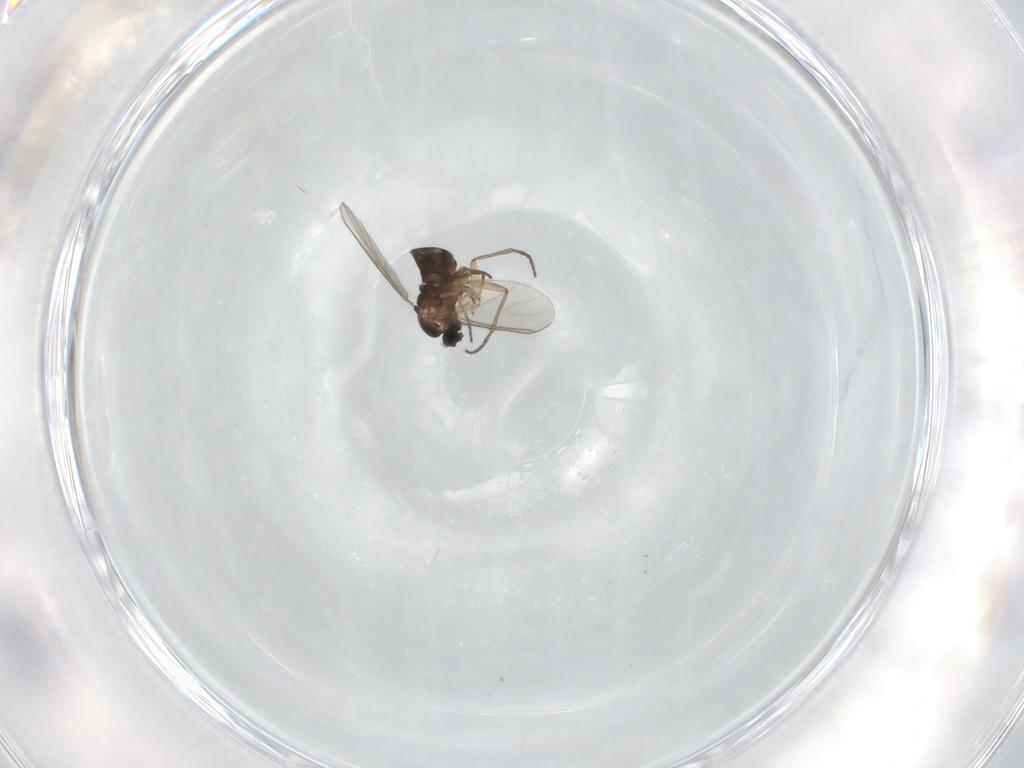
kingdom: Animalia
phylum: Arthropoda
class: Insecta
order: Diptera
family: Sciaridae
